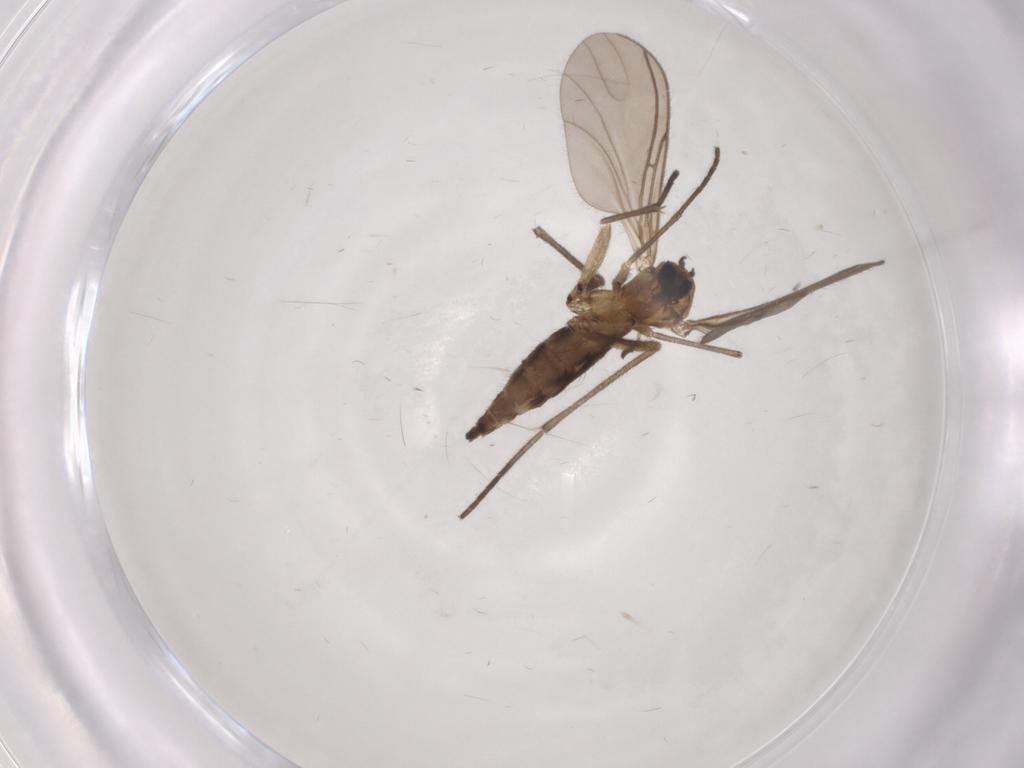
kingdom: Animalia
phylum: Arthropoda
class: Insecta
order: Diptera
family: Sciaridae
